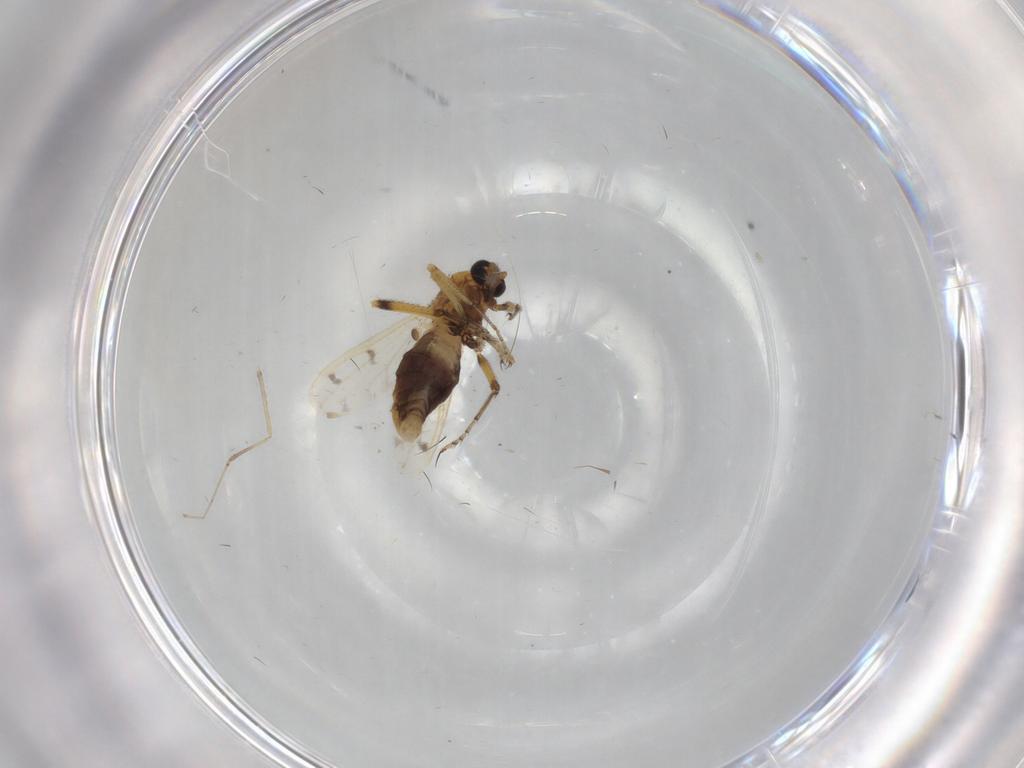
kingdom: Animalia
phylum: Arthropoda
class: Insecta
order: Diptera
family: Ceratopogonidae
